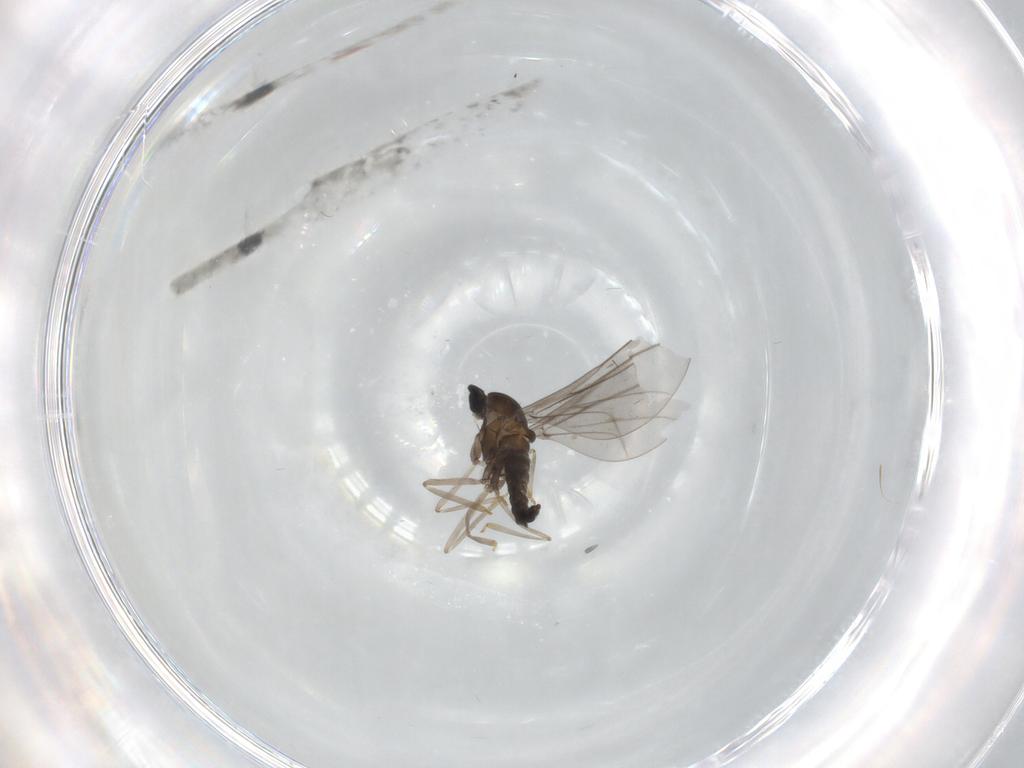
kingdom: Animalia
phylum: Arthropoda
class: Insecta
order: Diptera
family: Cecidomyiidae
